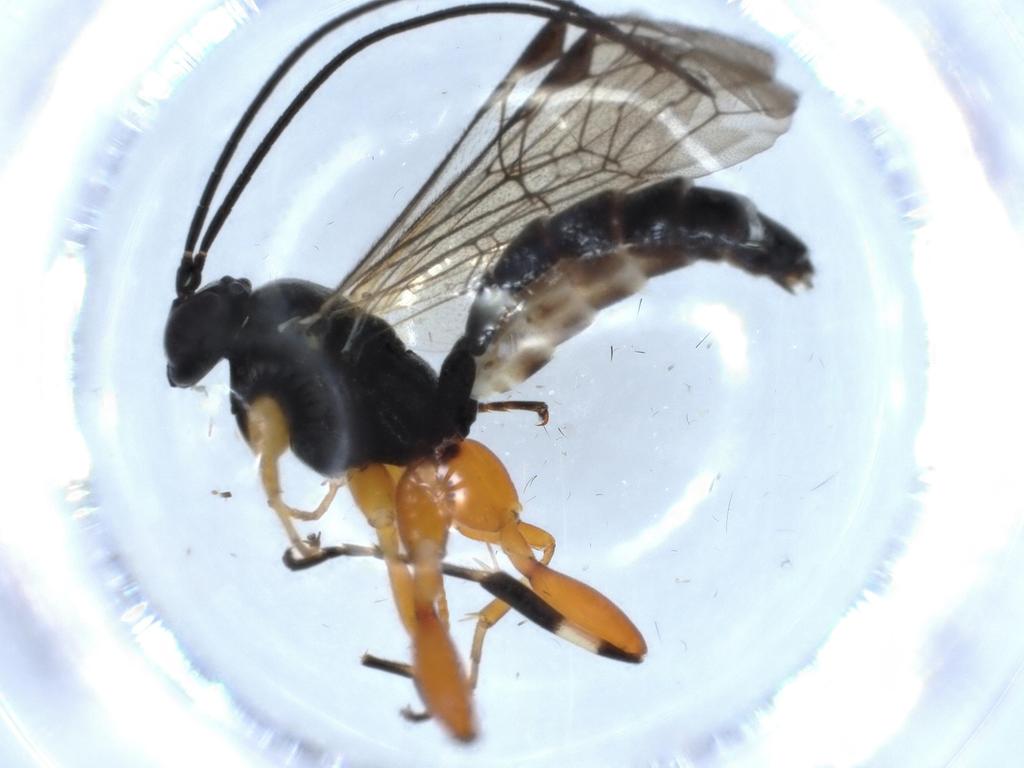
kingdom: Animalia
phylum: Arthropoda
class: Insecta
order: Hymenoptera
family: Ichneumonidae
